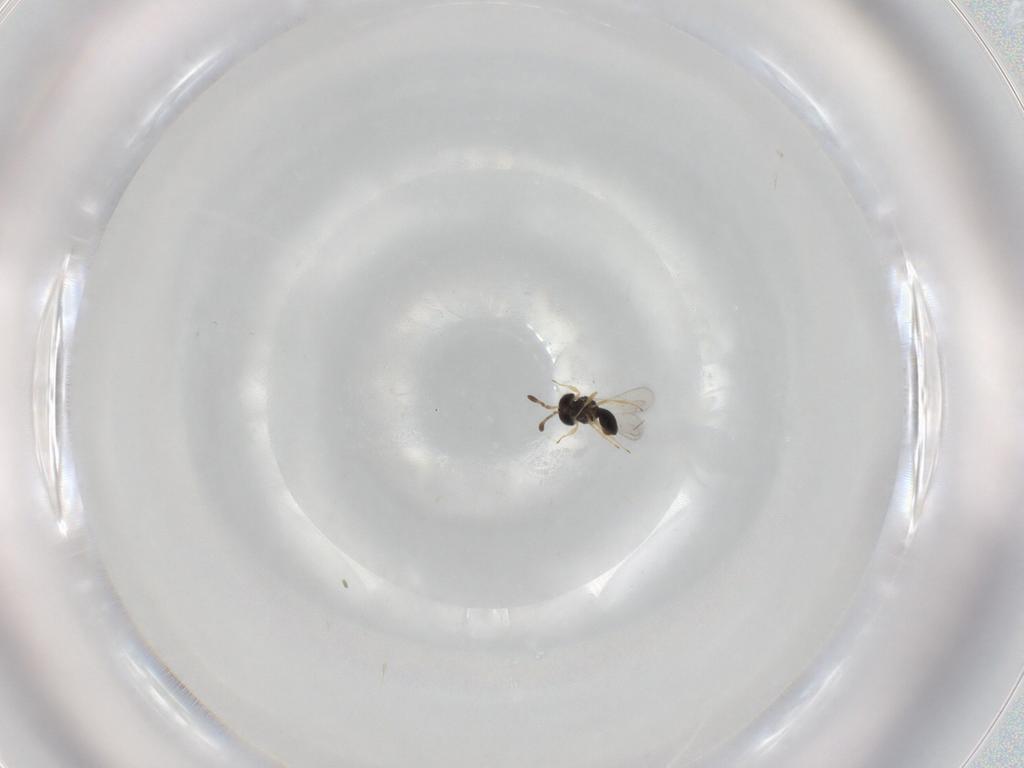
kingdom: Animalia
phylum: Arthropoda
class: Insecta
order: Hymenoptera
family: Scelionidae
